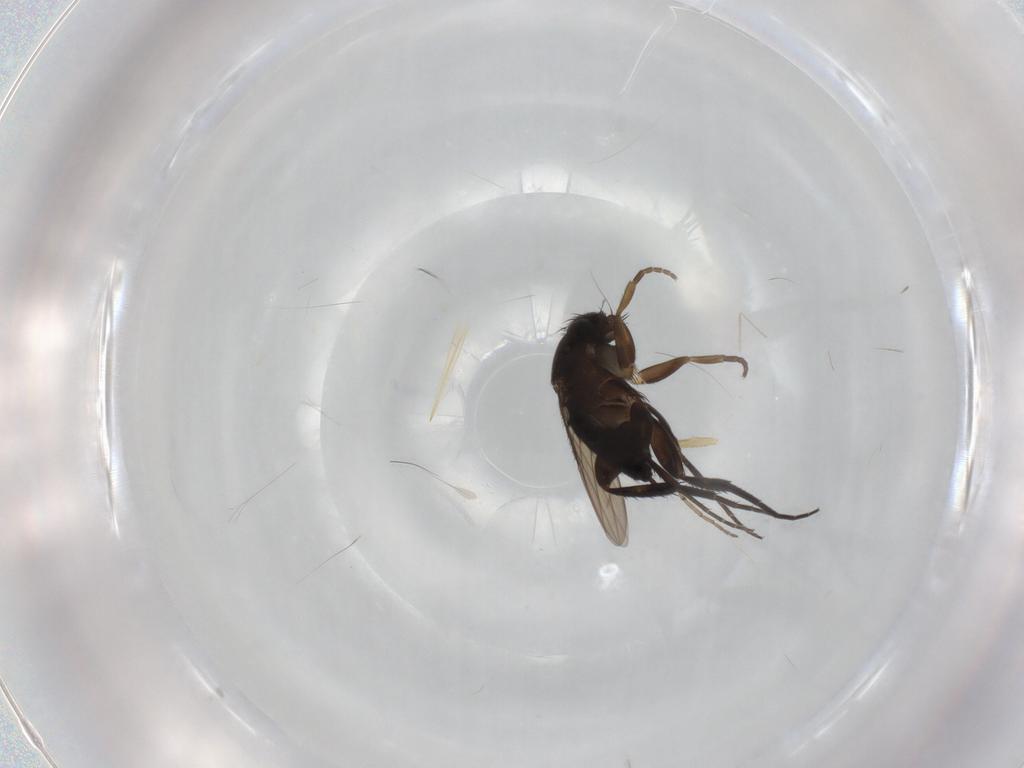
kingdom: Animalia
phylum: Arthropoda
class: Insecta
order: Diptera
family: Phoridae
